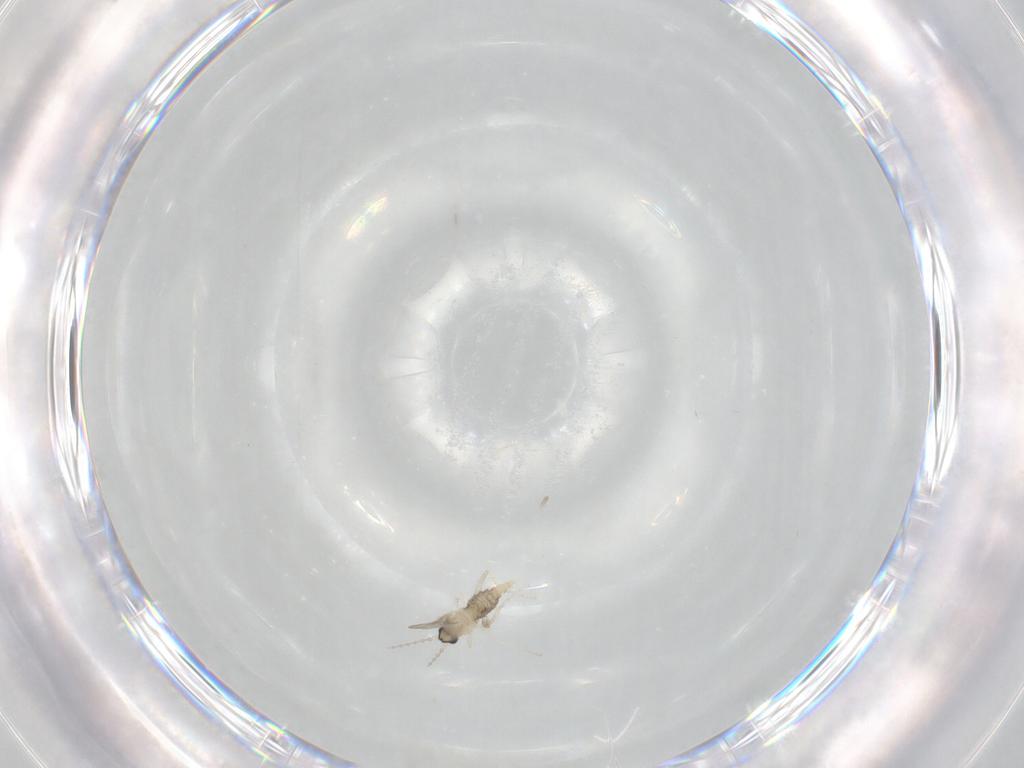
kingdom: Animalia
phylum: Arthropoda
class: Insecta
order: Diptera
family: Cecidomyiidae
